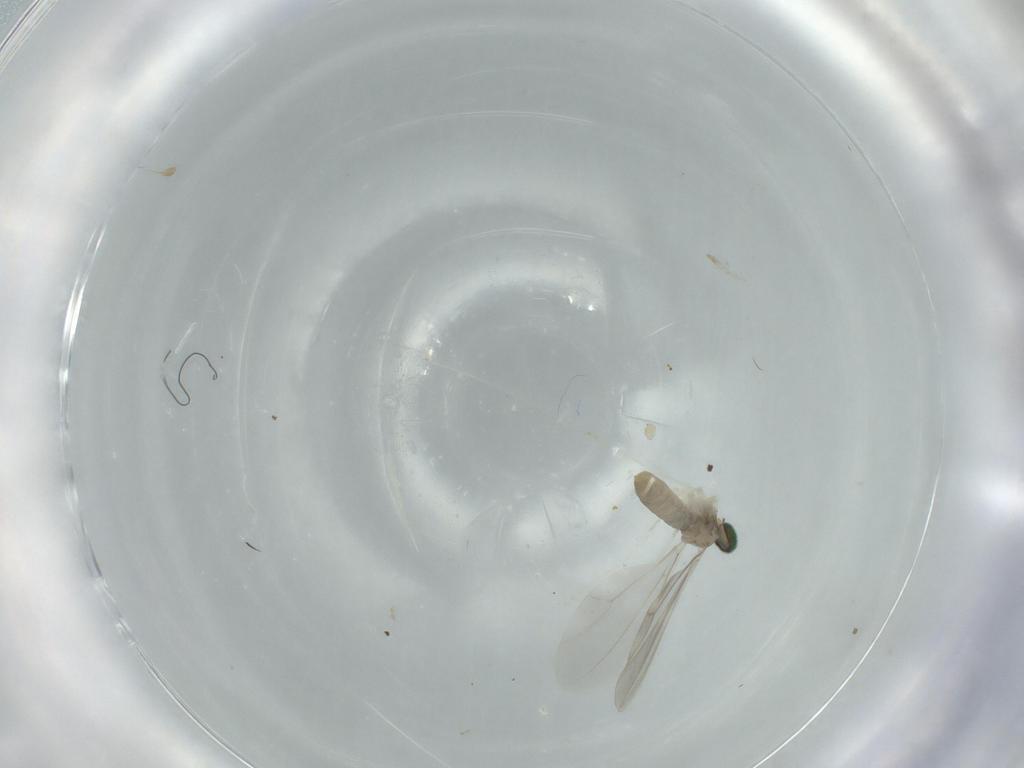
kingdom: Animalia
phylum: Arthropoda
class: Insecta
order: Diptera
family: Cecidomyiidae
